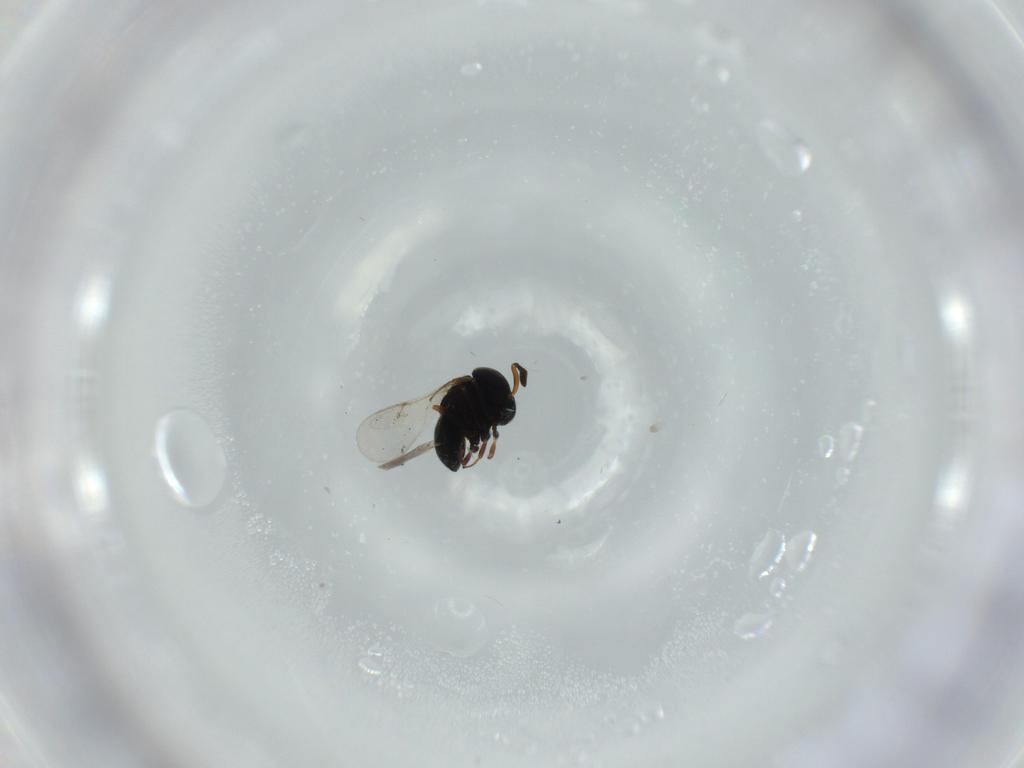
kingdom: Animalia
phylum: Arthropoda
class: Insecta
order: Hymenoptera
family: Scelionidae
